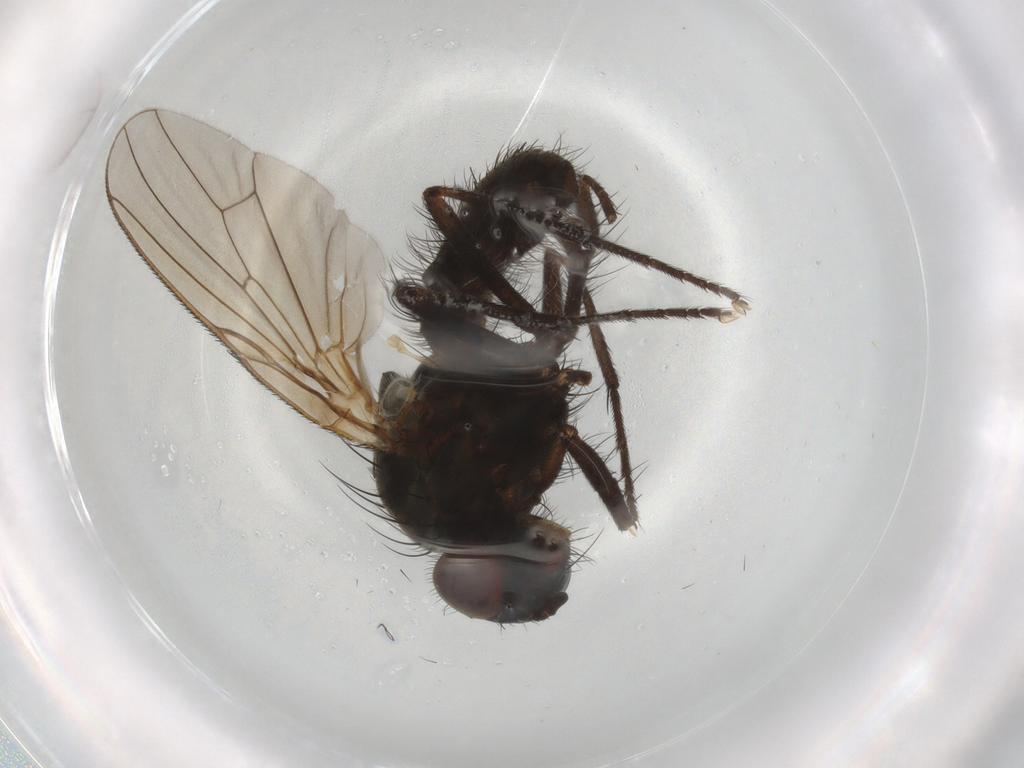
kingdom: Animalia
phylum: Arthropoda
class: Insecta
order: Diptera
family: Anthomyiidae
